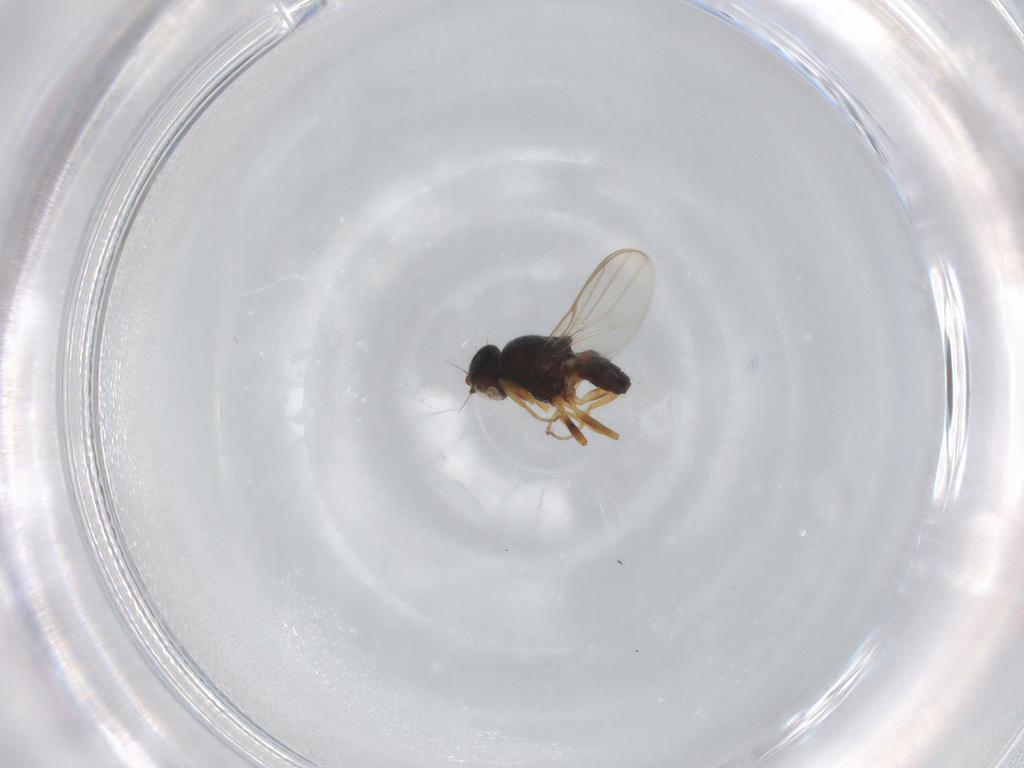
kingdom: Animalia
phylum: Arthropoda
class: Insecta
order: Diptera
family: Chloropidae
